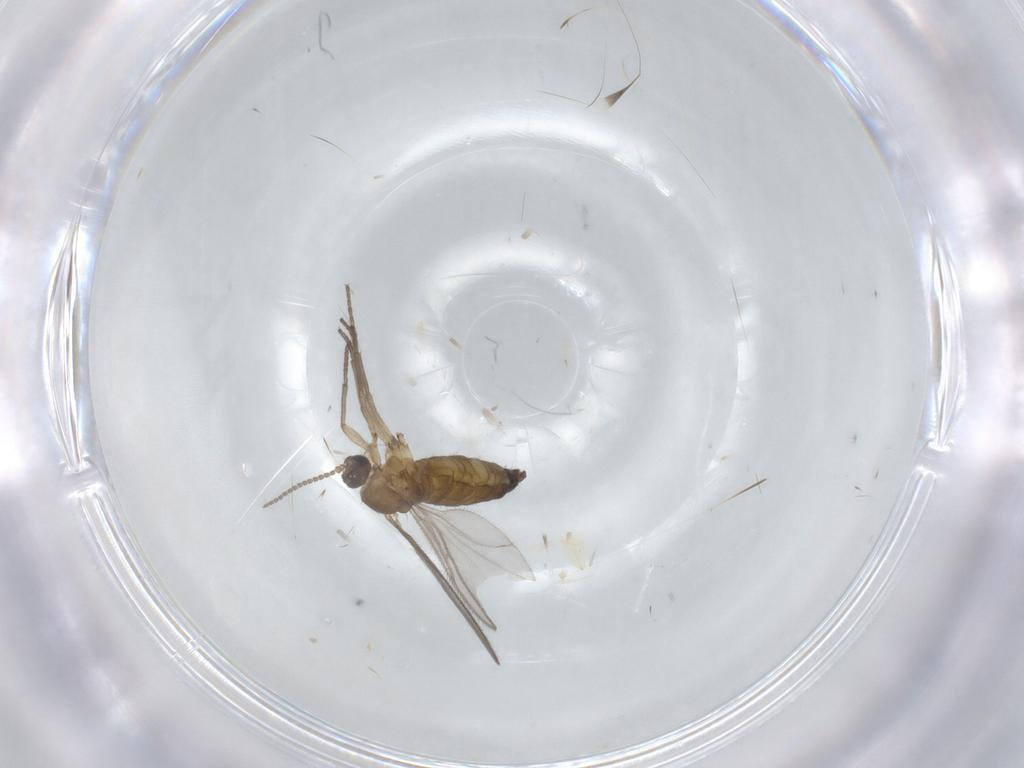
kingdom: Animalia
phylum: Arthropoda
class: Insecta
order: Diptera
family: Sciaridae
